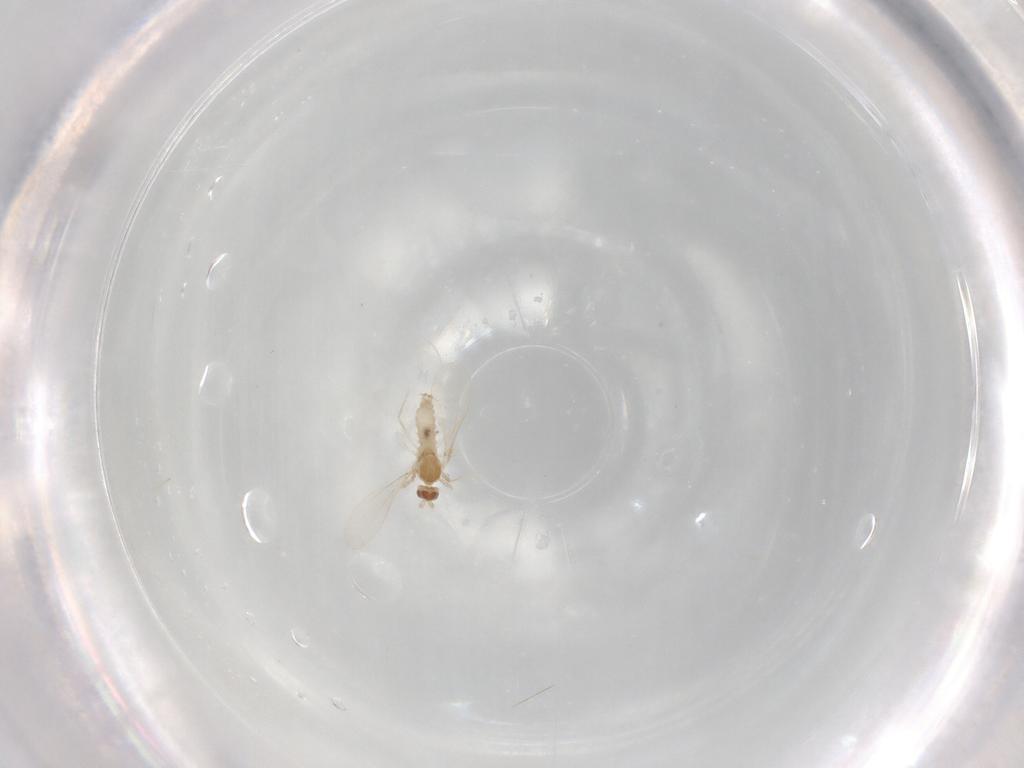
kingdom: Animalia
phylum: Arthropoda
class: Insecta
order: Diptera
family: Cecidomyiidae
